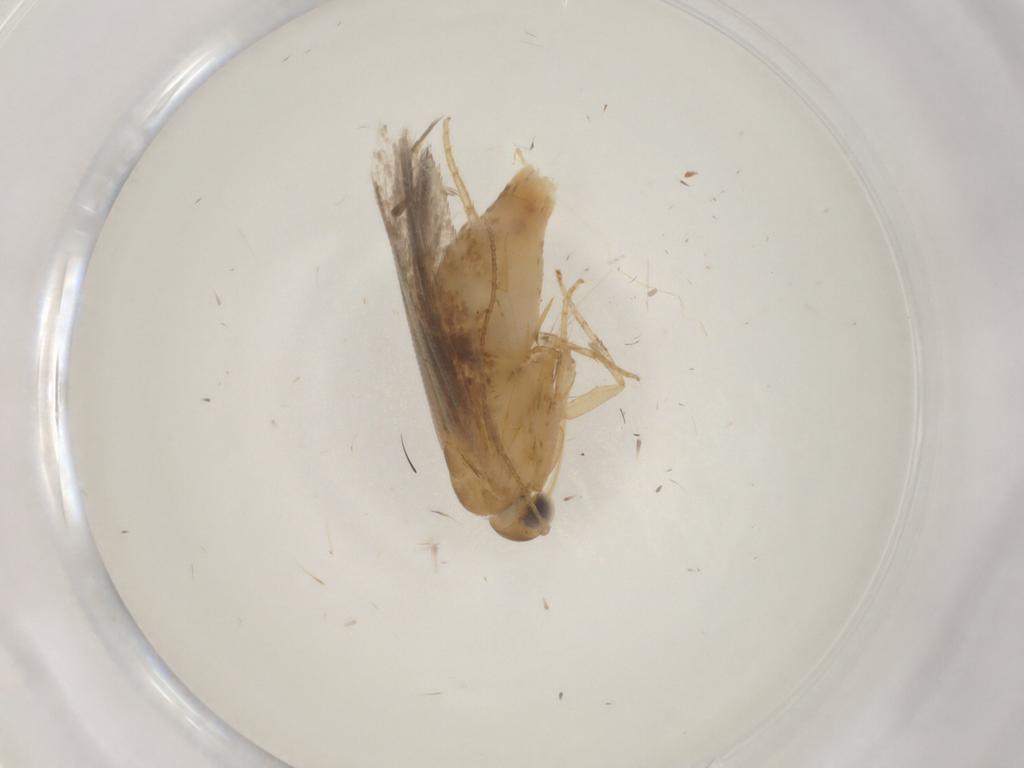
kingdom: Animalia
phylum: Arthropoda
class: Insecta
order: Lepidoptera
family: Gelechiidae
